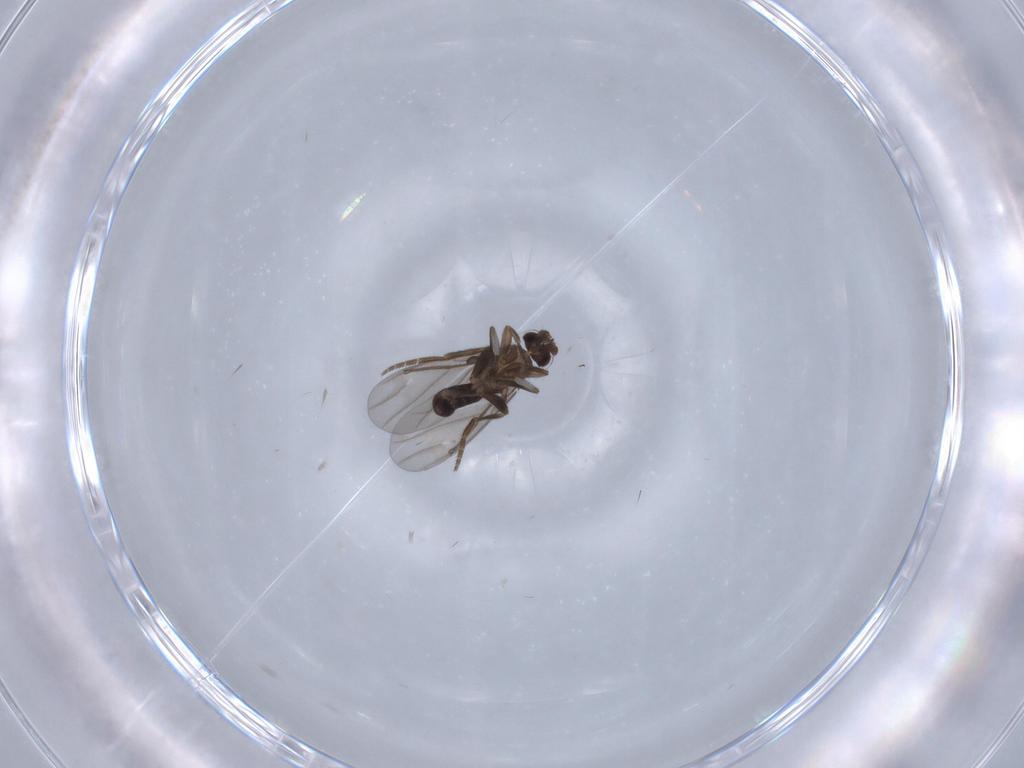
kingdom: Animalia
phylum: Arthropoda
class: Insecta
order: Diptera
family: Phoridae
